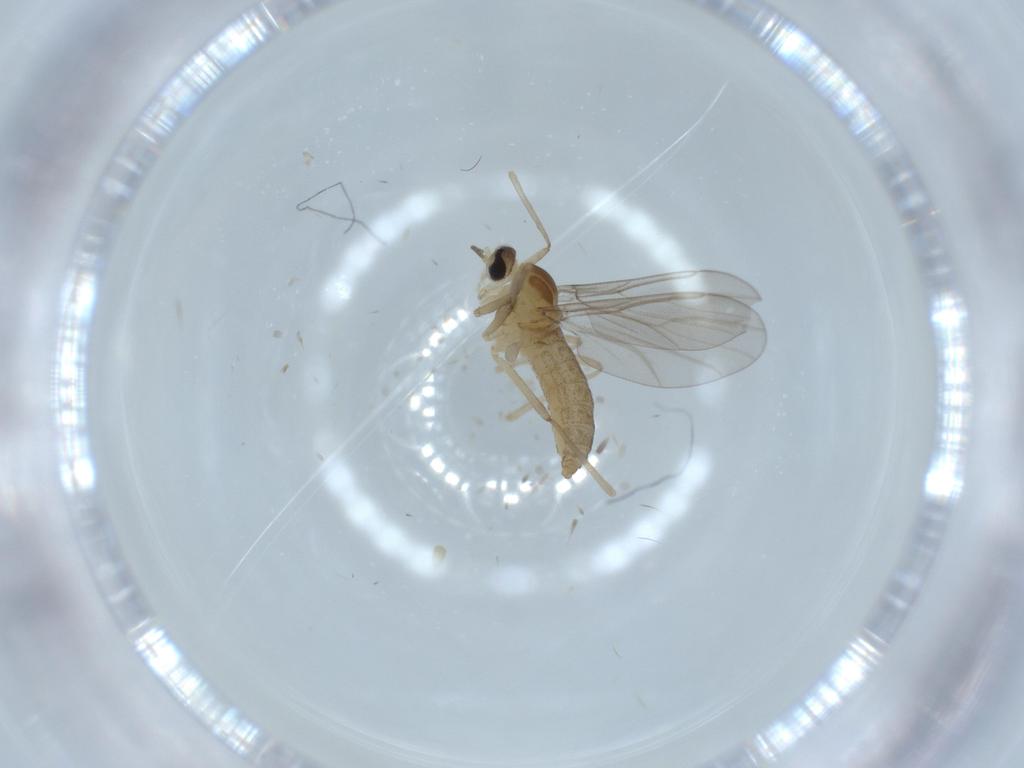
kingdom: Animalia
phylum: Arthropoda
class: Insecta
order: Diptera
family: Cecidomyiidae
